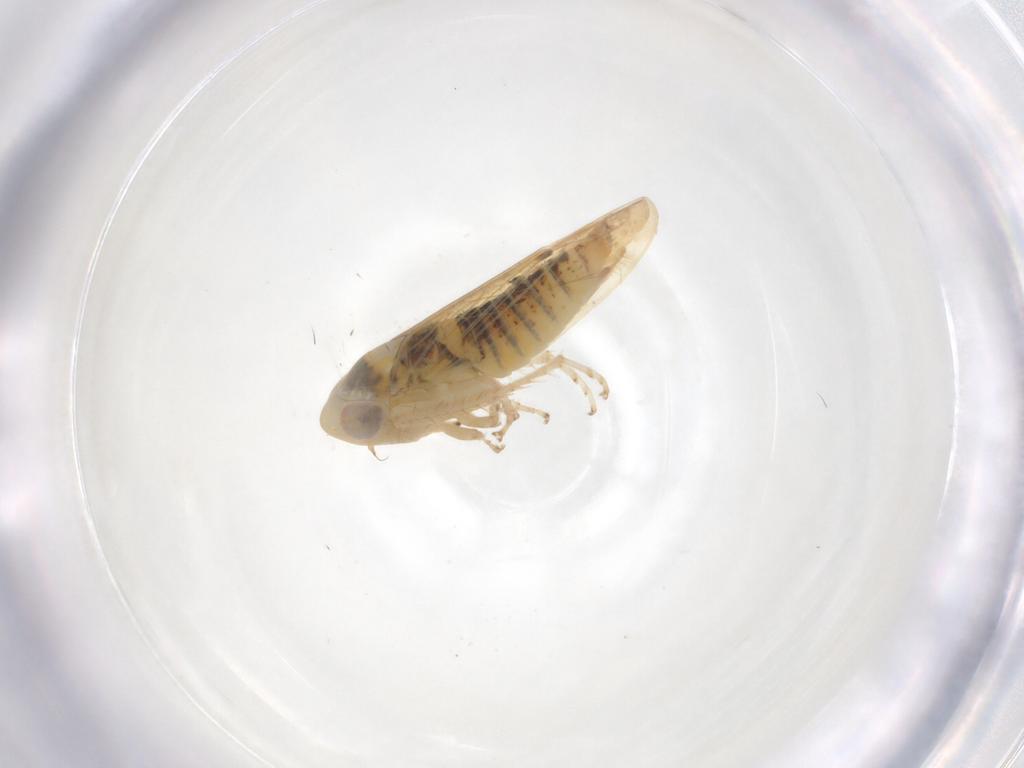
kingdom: Animalia
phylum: Arthropoda
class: Insecta
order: Hemiptera
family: Cicadellidae
